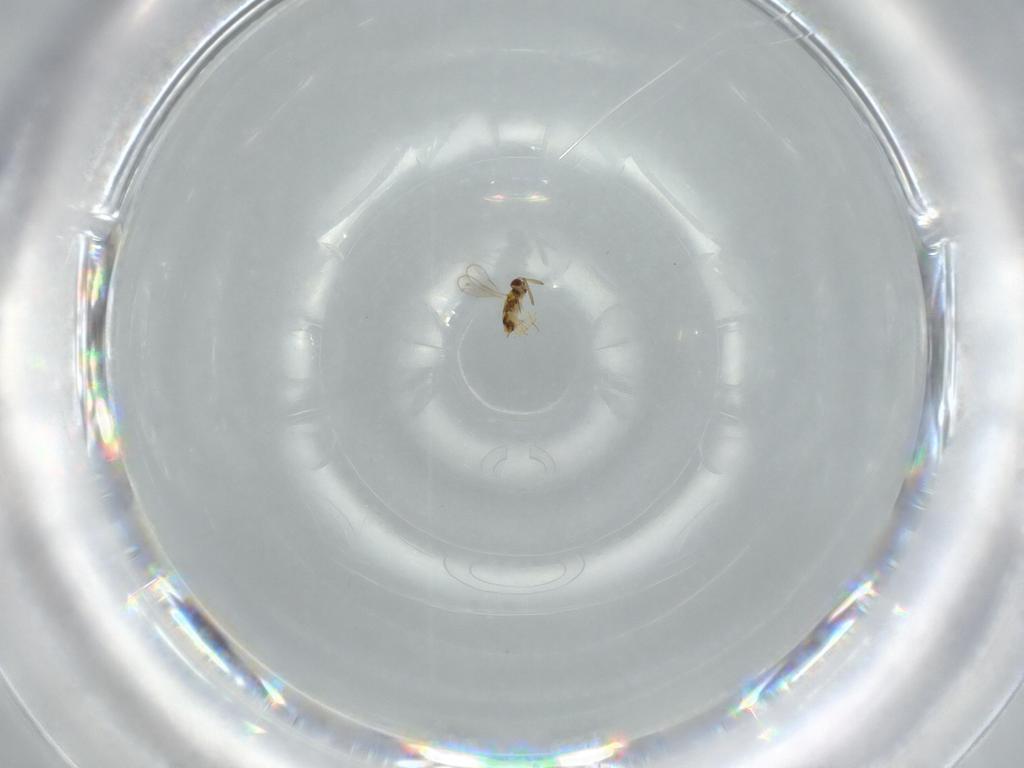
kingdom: Animalia
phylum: Arthropoda
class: Insecta
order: Hymenoptera
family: Aphelinidae
